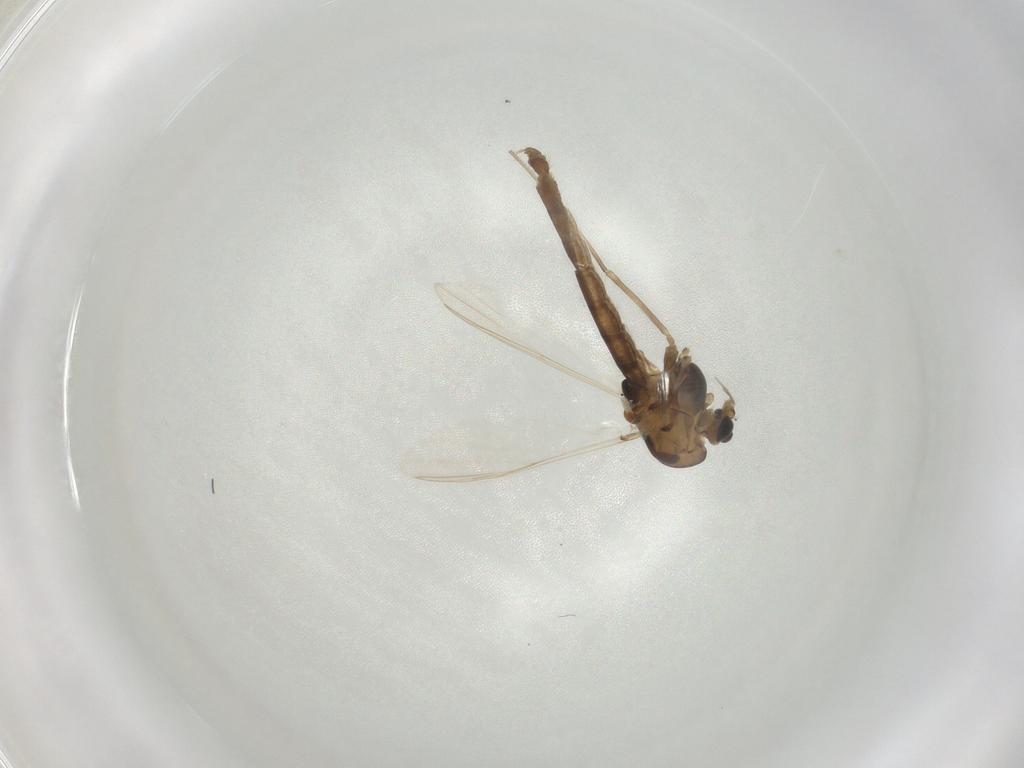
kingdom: Animalia
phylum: Arthropoda
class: Insecta
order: Diptera
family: Chironomidae
